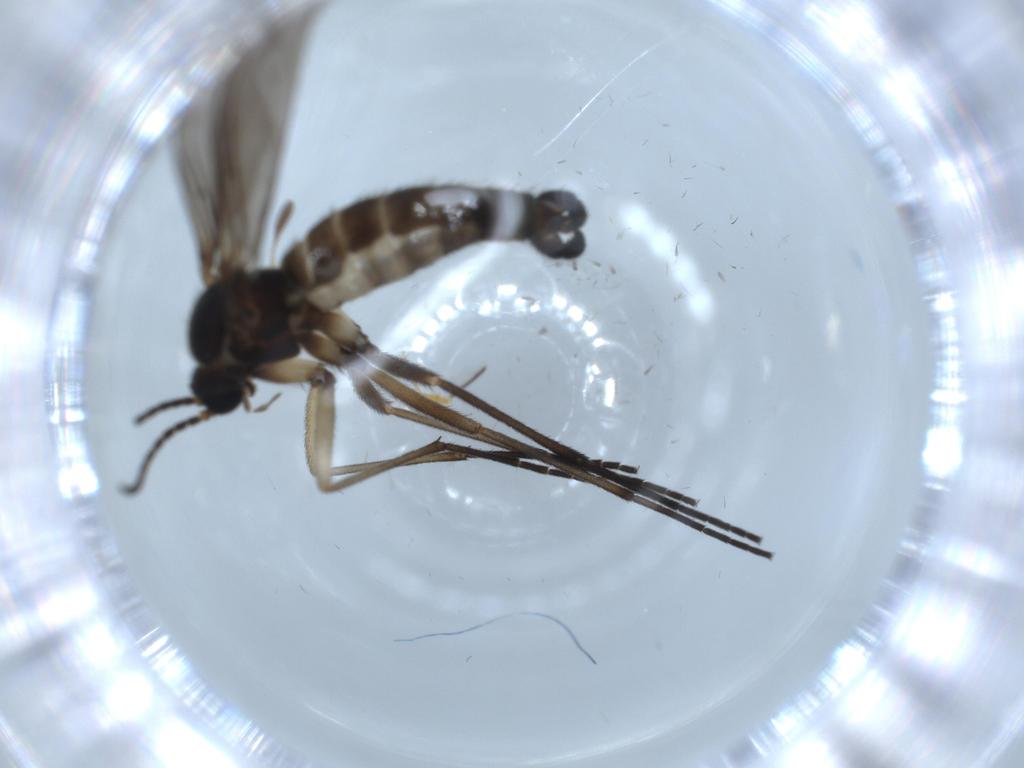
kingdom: Animalia
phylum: Arthropoda
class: Insecta
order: Diptera
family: Sciaridae
